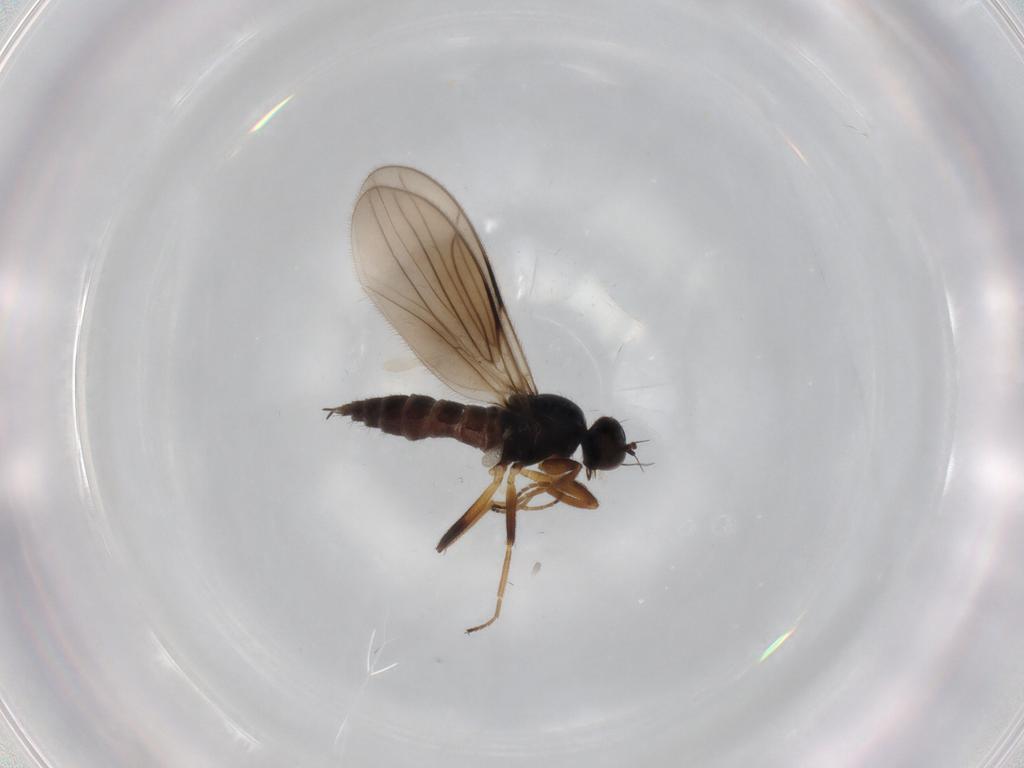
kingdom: Animalia
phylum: Arthropoda
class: Insecta
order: Diptera
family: Hybotidae
